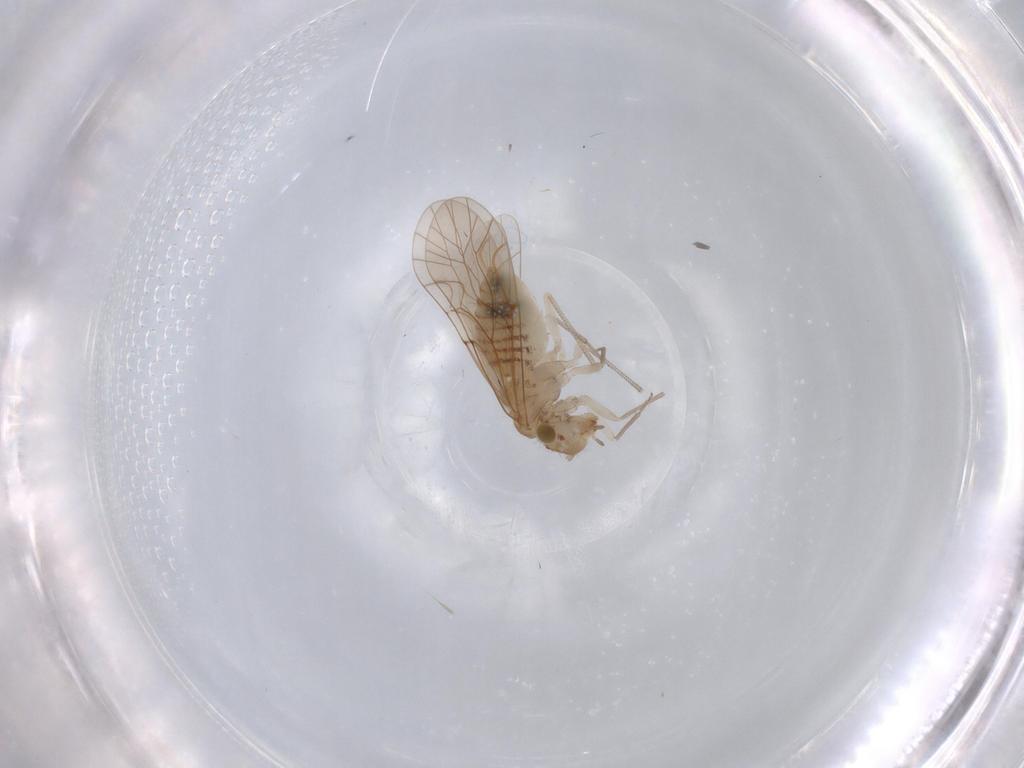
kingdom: Animalia
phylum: Arthropoda
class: Insecta
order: Psocodea
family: Lachesillidae
